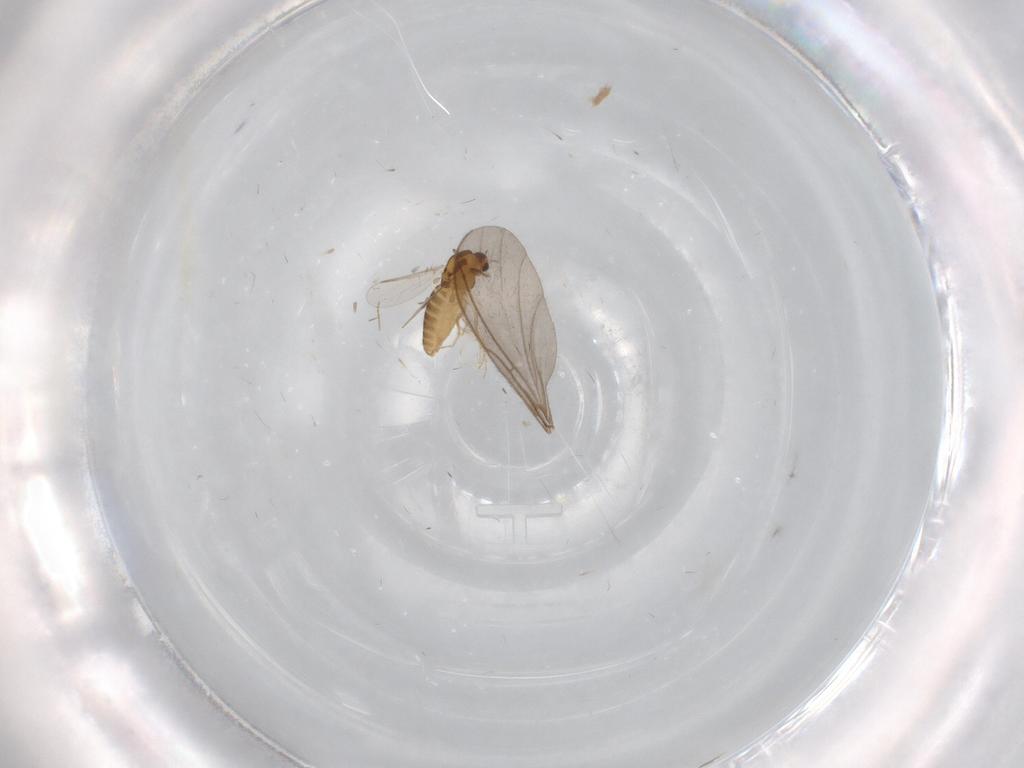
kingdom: Animalia
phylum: Arthropoda
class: Insecta
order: Diptera
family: Chironomidae
